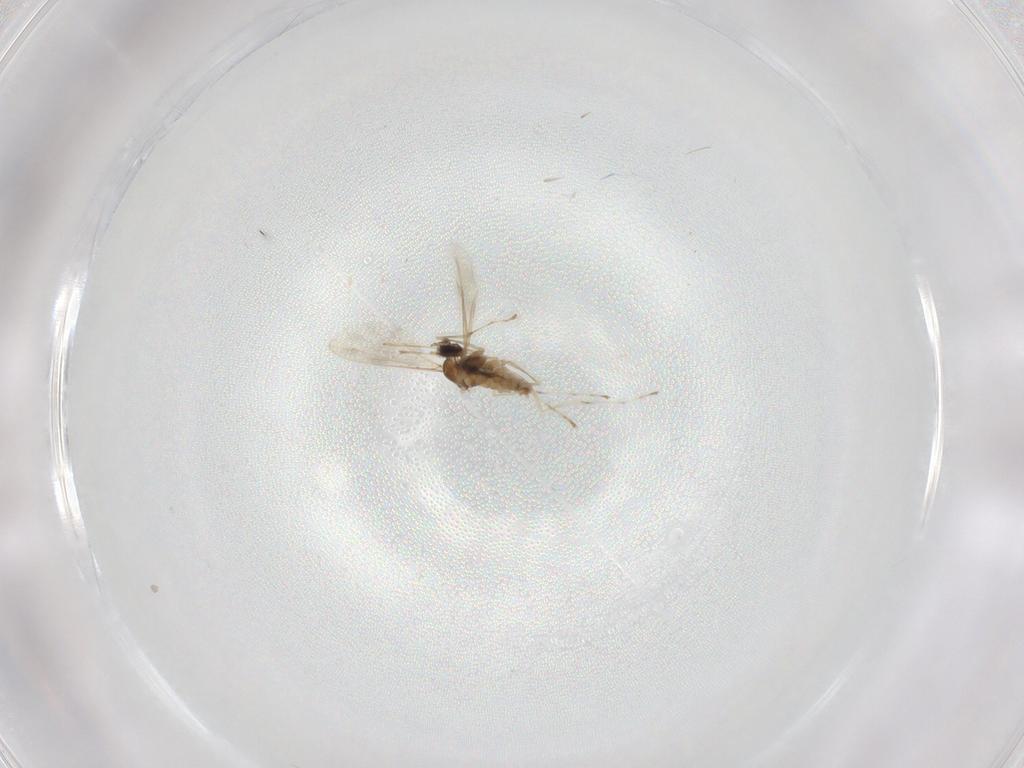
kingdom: Animalia
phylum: Arthropoda
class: Insecta
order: Diptera
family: Cecidomyiidae
